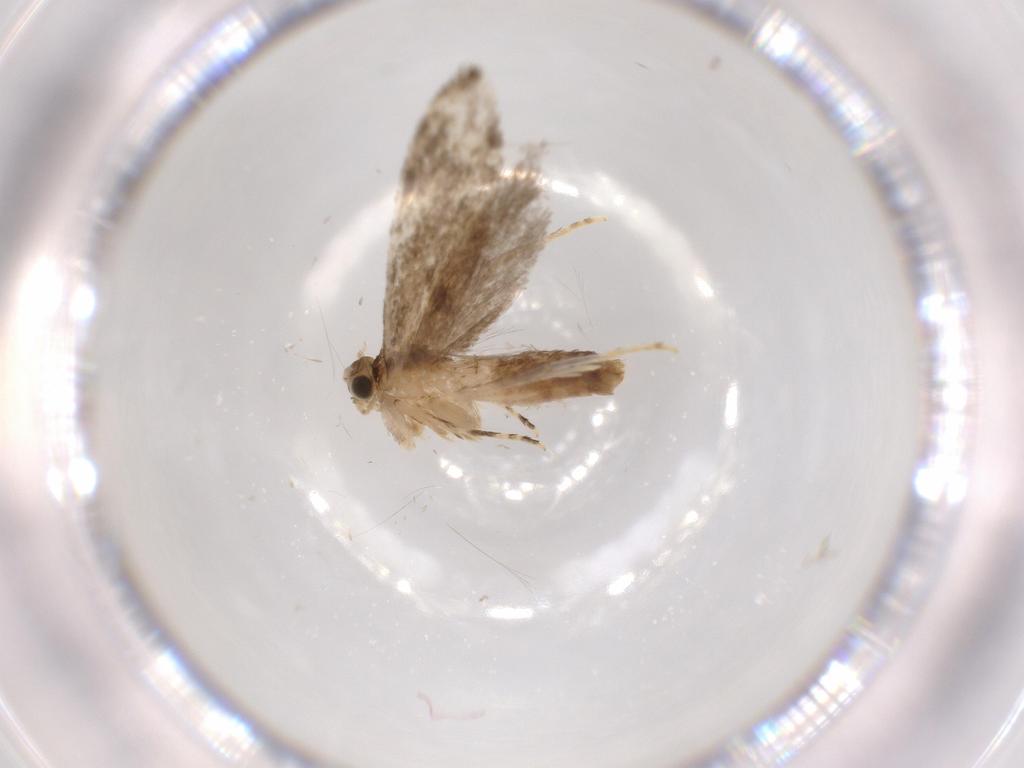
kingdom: Animalia
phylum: Arthropoda
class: Insecta
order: Lepidoptera
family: Tineidae
